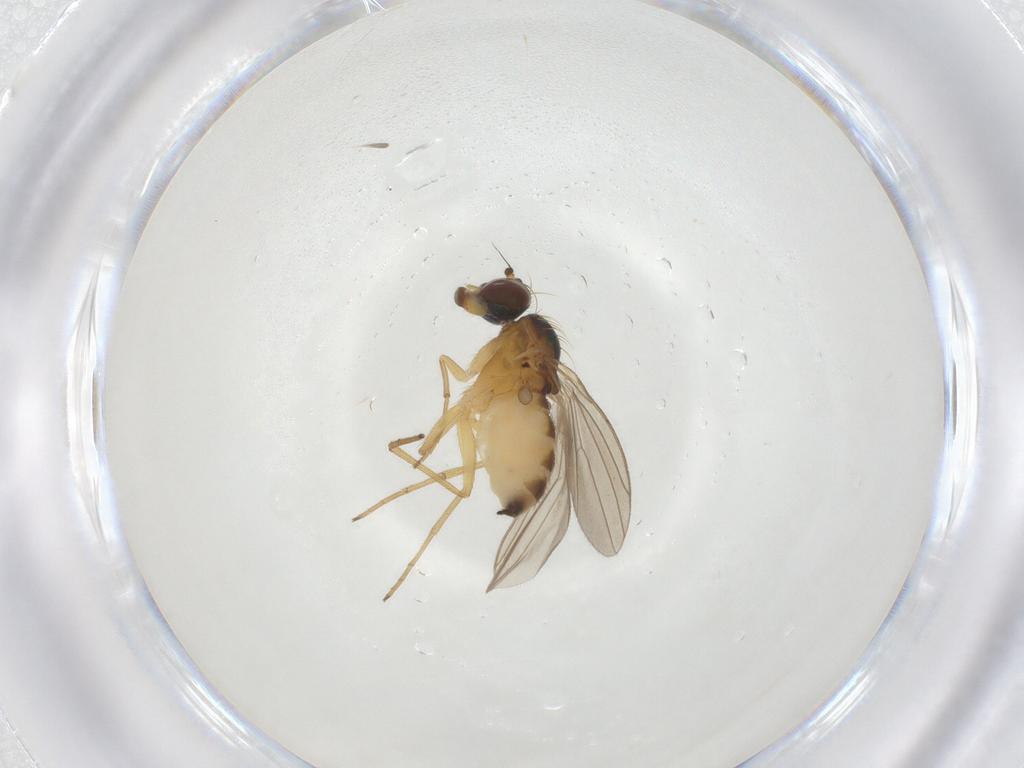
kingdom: Animalia
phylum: Arthropoda
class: Insecta
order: Diptera
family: Dolichopodidae
